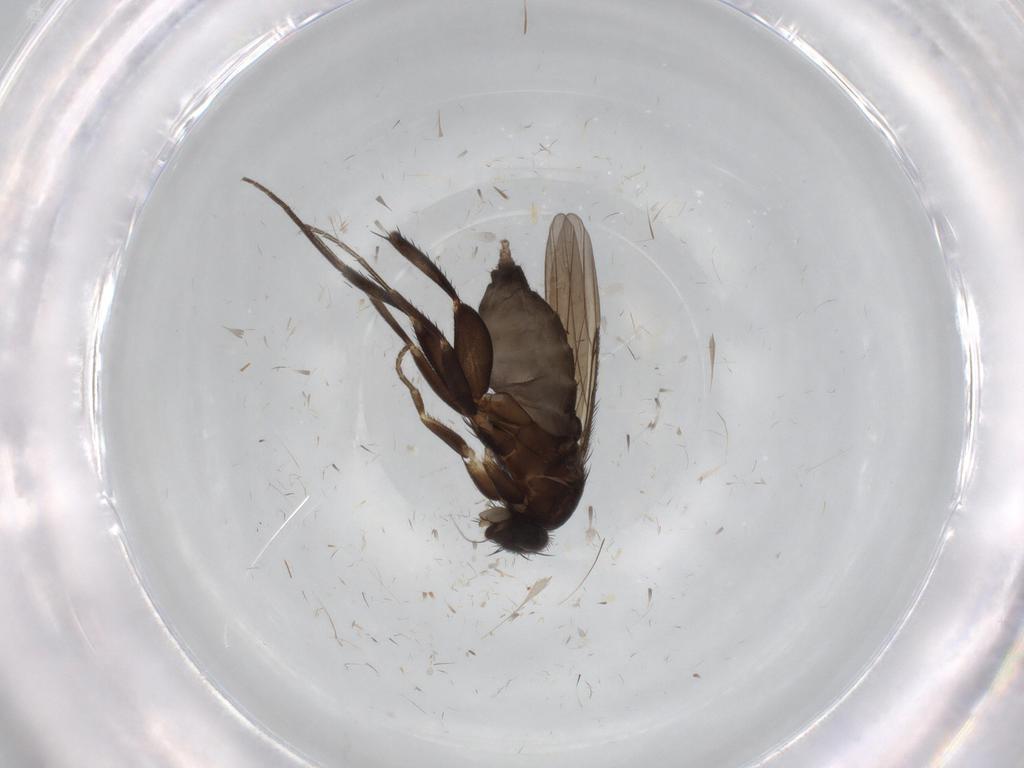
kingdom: Animalia
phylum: Arthropoda
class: Insecta
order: Diptera
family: Phoridae
